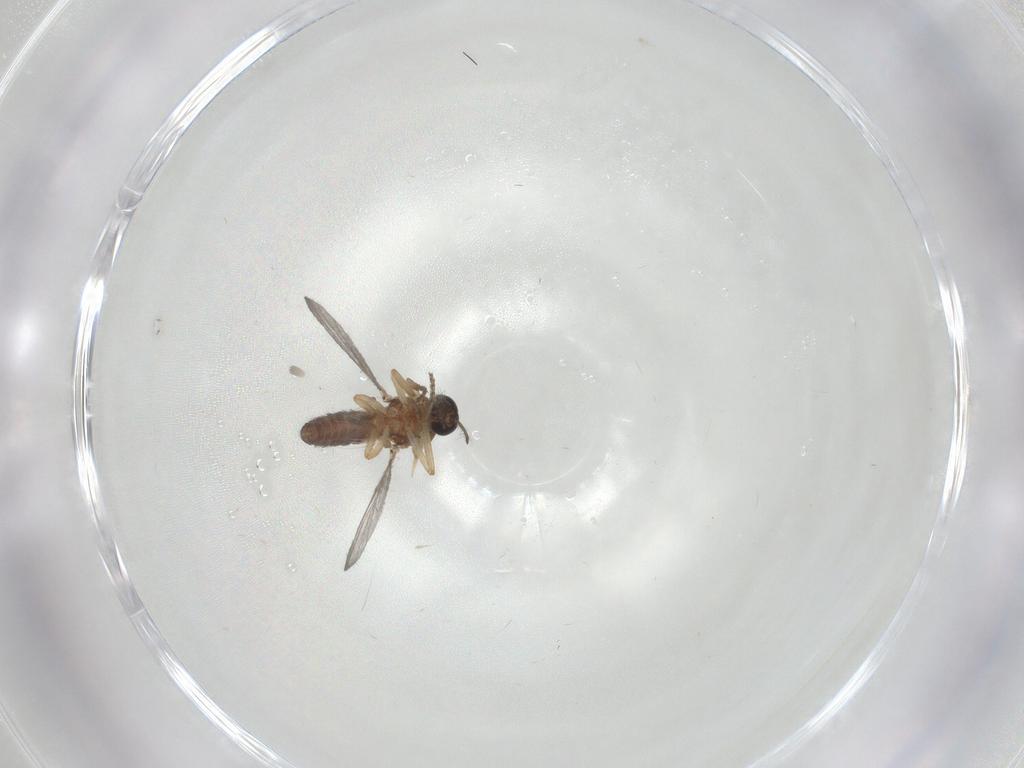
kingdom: Animalia
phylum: Arthropoda
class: Insecta
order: Diptera
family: Ceratopogonidae
